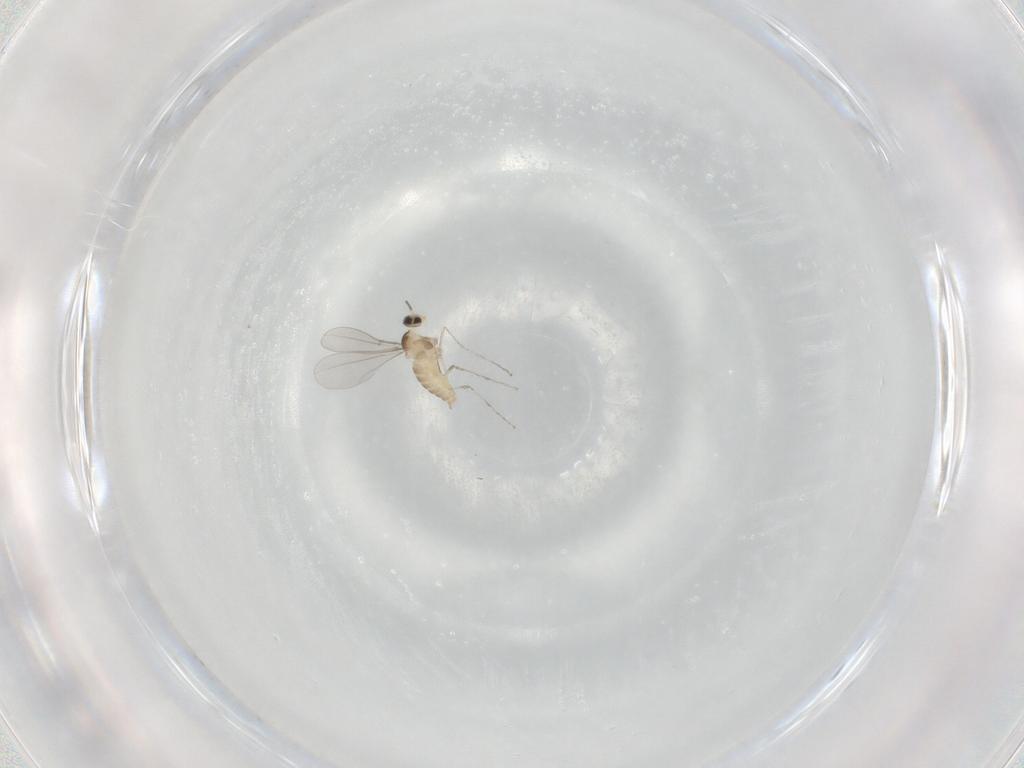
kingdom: Animalia
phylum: Arthropoda
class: Insecta
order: Diptera
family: Cecidomyiidae
